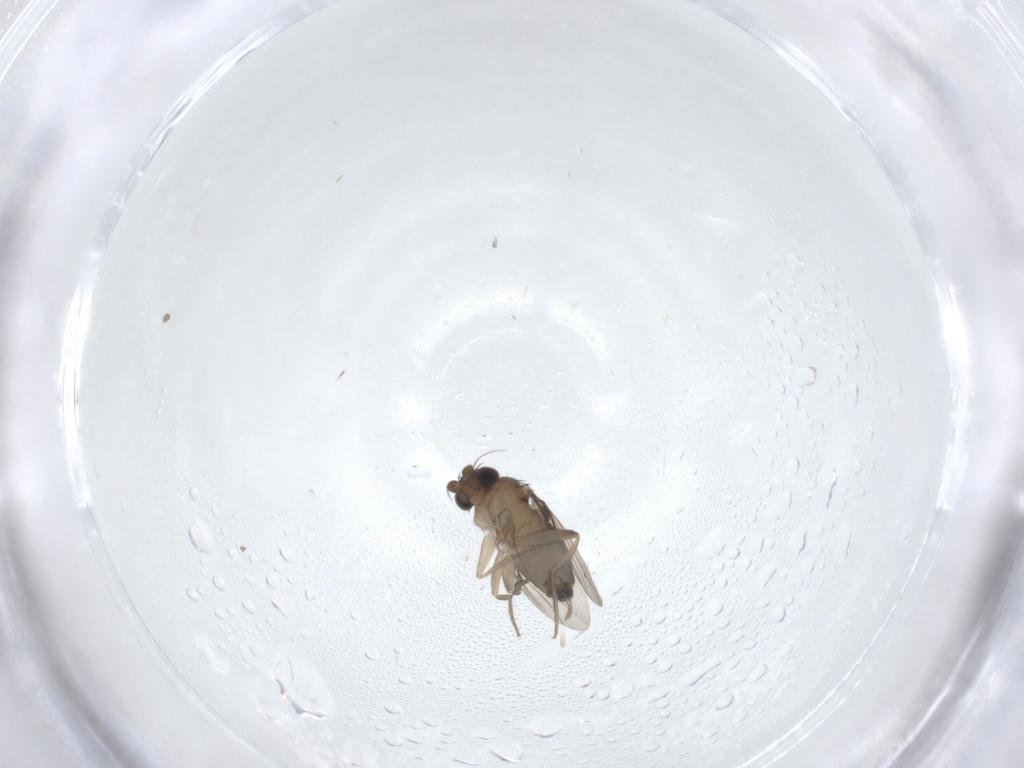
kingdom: Animalia
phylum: Arthropoda
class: Insecta
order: Diptera
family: Phoridae
